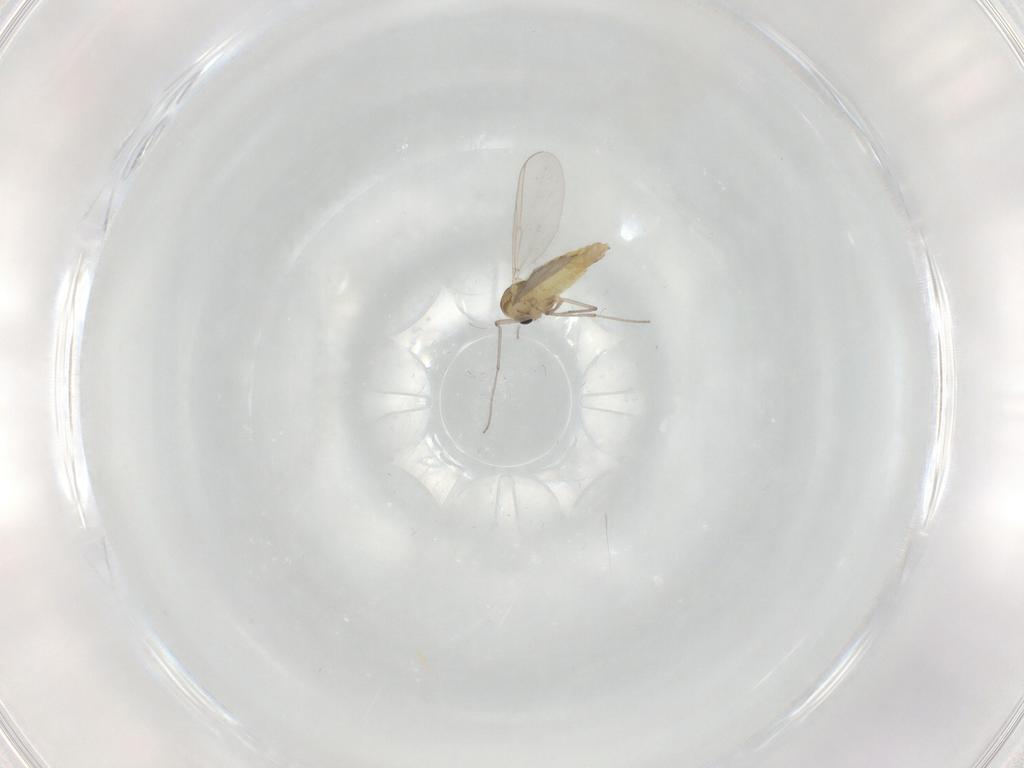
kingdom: Animalia
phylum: Arthropoda
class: Insecta
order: Diptera
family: Chironomidae
